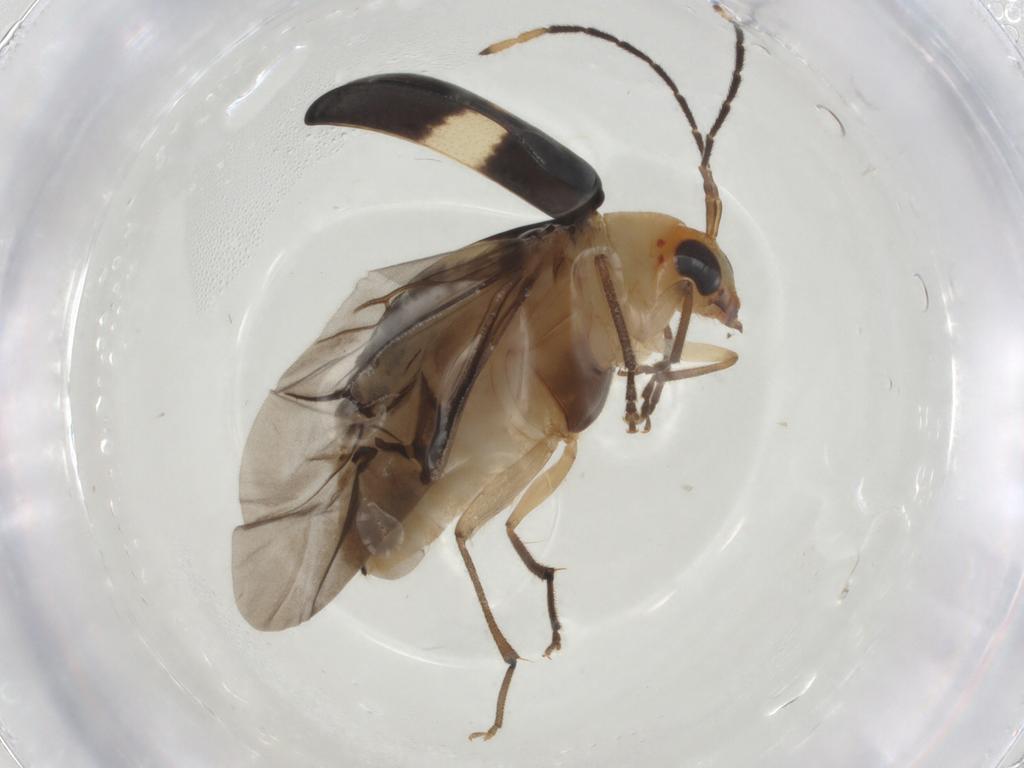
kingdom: Animalia
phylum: Arthropoda
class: Insecta
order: Coleoptera
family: Chrysomelidae
